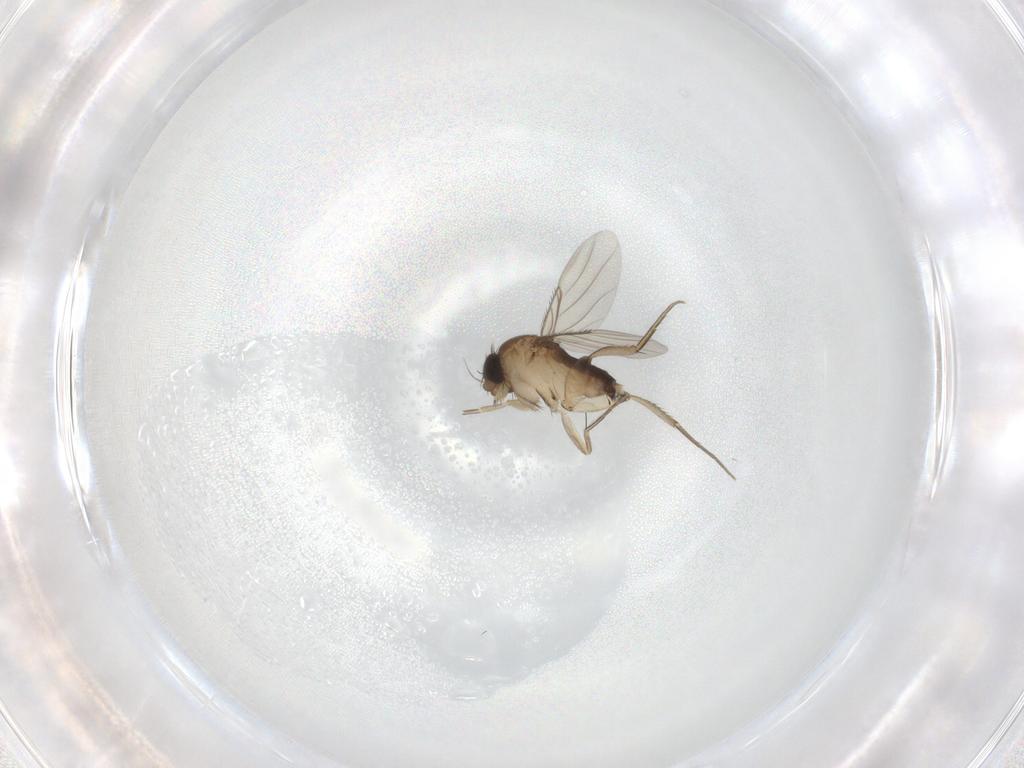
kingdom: Animalia
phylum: Arthropoda
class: Insecta
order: Diptera
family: Phoridae
